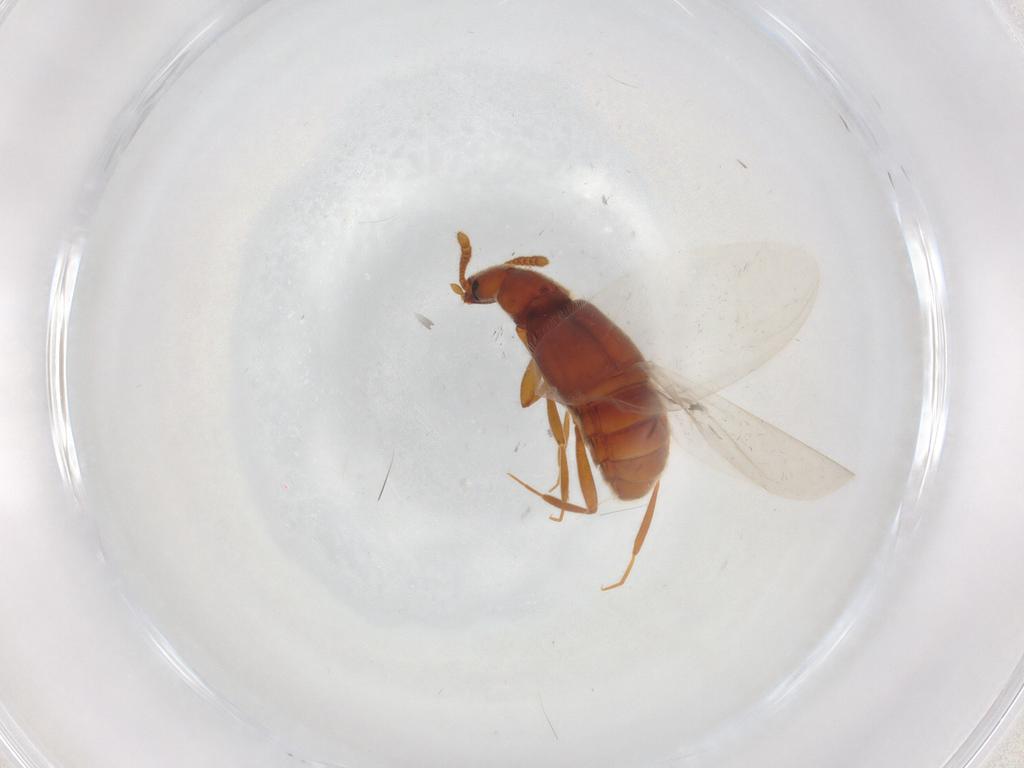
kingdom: Animalia
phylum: Arthropoda
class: Insecta
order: Coleoptera
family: Staphylinidae
